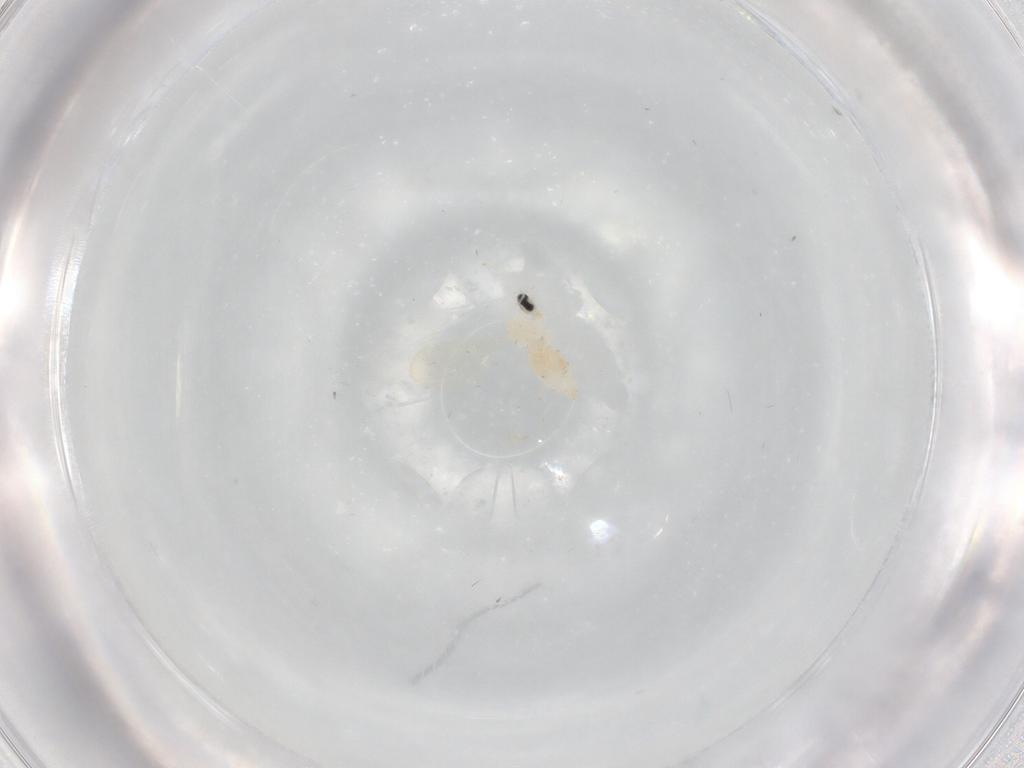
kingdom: Animalia
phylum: Arthropoda
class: Insecta
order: Diptera
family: Cecidomyiidae
